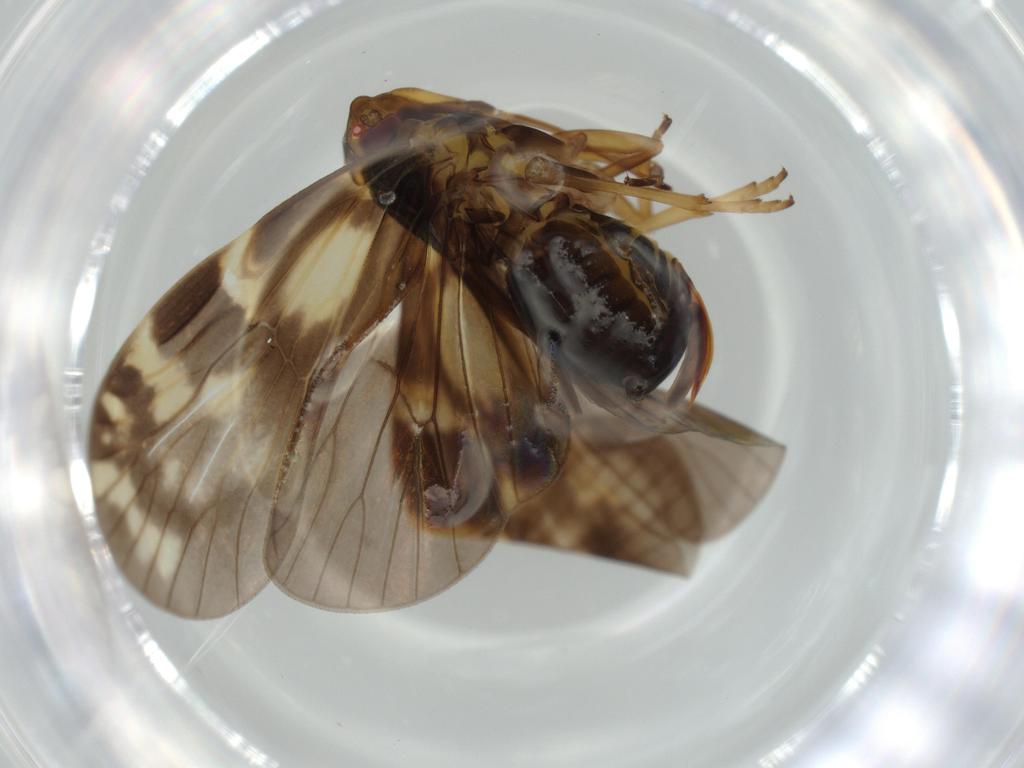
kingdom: Animalia
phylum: Arthropoda
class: Insecta
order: Hemiptera
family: Cixiidae
